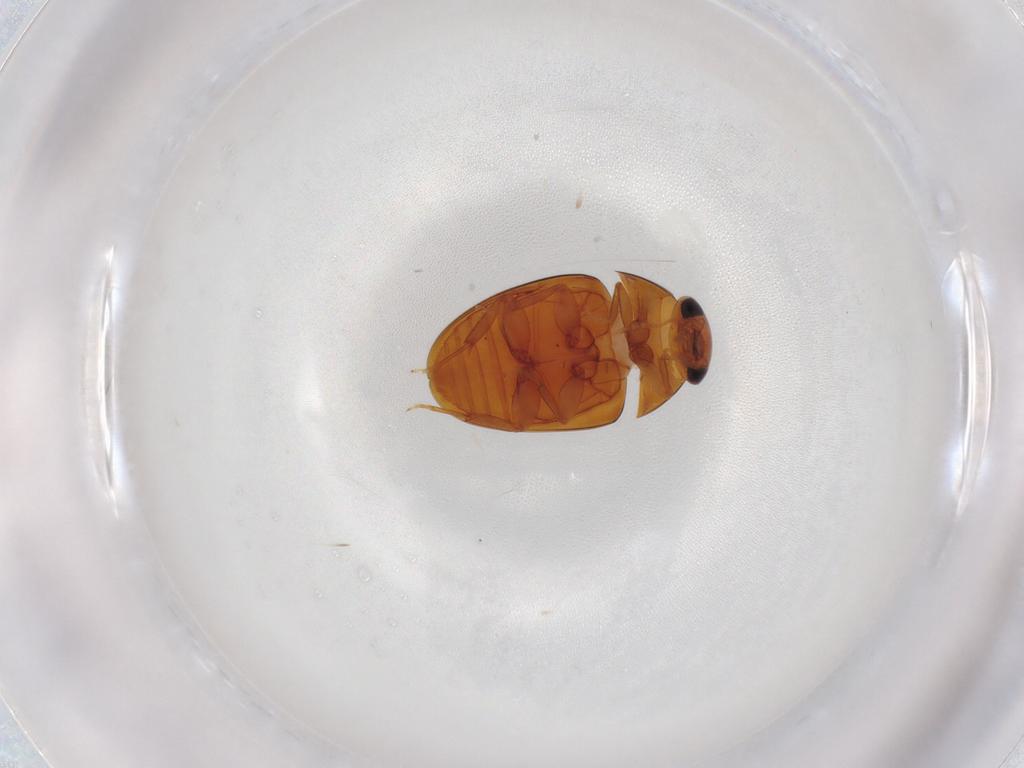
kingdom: Animalia
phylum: Arthropoda
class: Insecta
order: Coleoptera
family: Phalacridae
